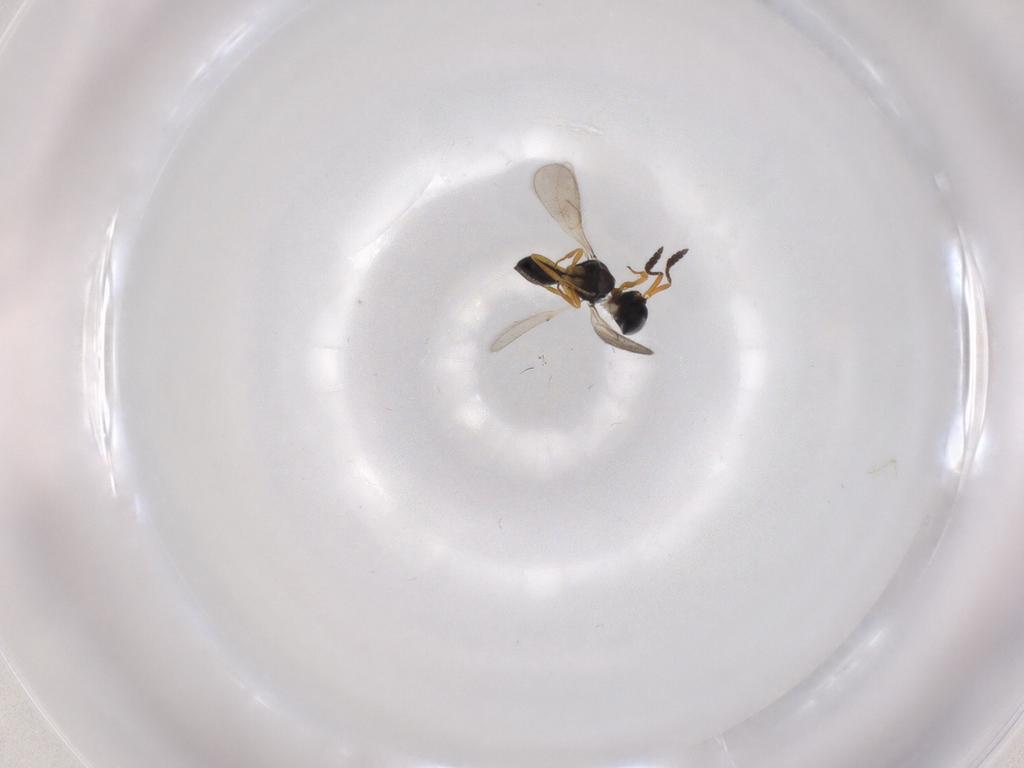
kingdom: Animalia
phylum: Arthropoda
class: Insecta
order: Hymenoptera
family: Scelionidae
